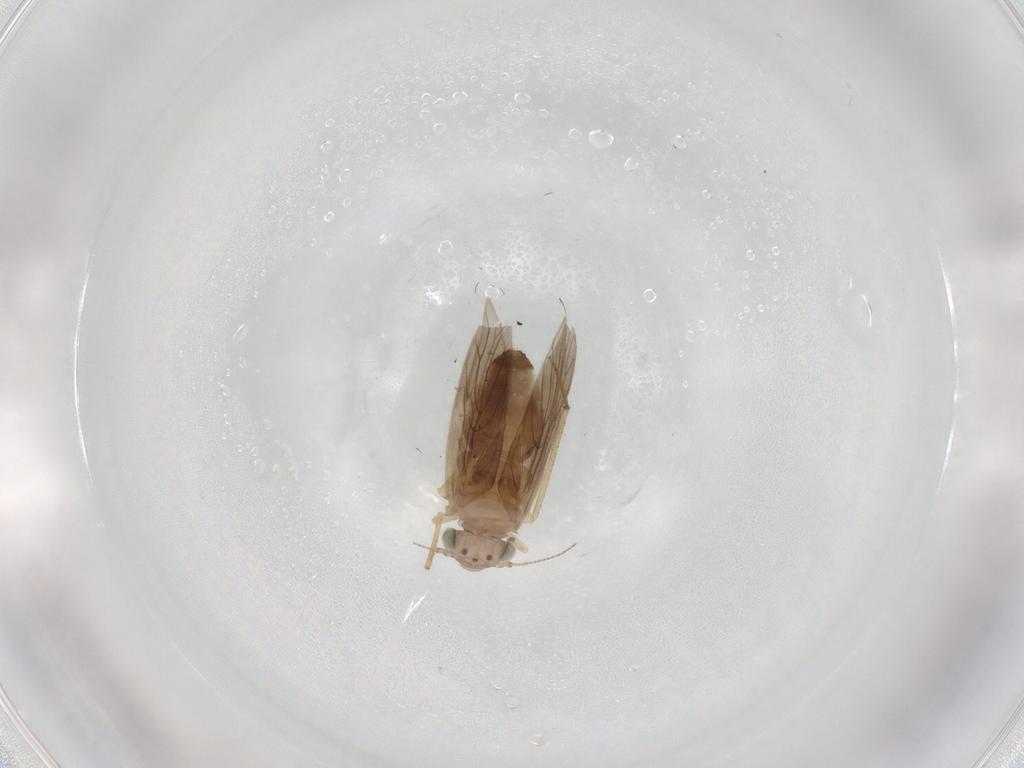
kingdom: Animalia
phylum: Arthropoda
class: Insecta
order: Psocodea
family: Lepidopsocidae
